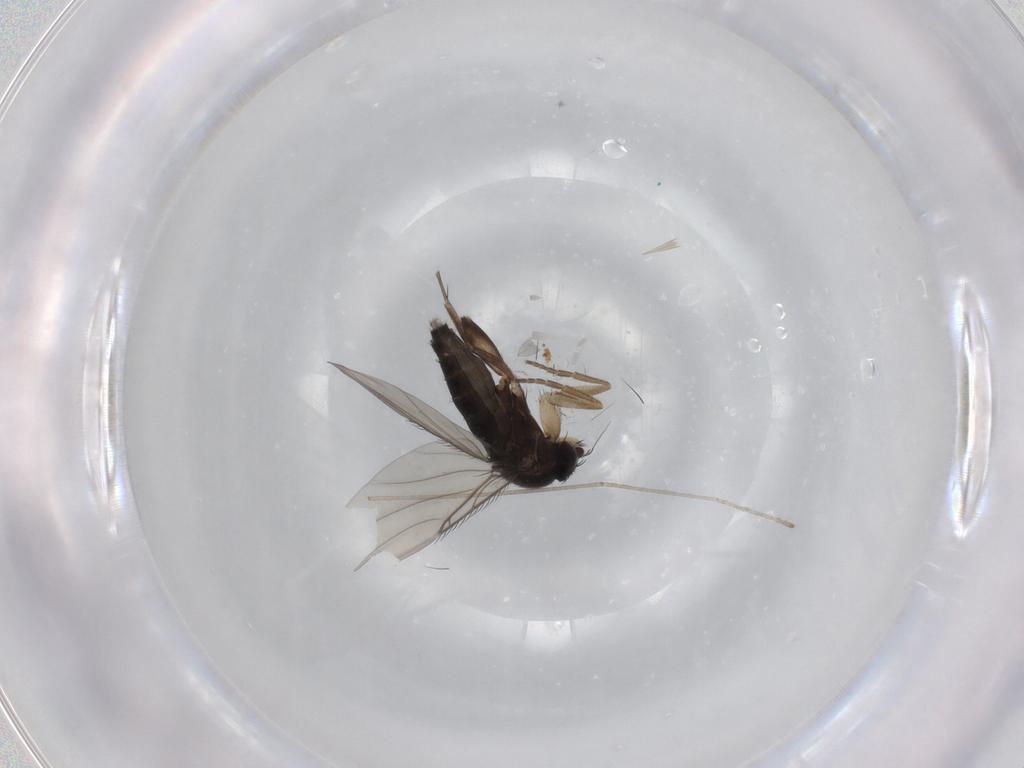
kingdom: Animalia
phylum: Arthropoda
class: Insecta
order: Diptera
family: Phoridae
